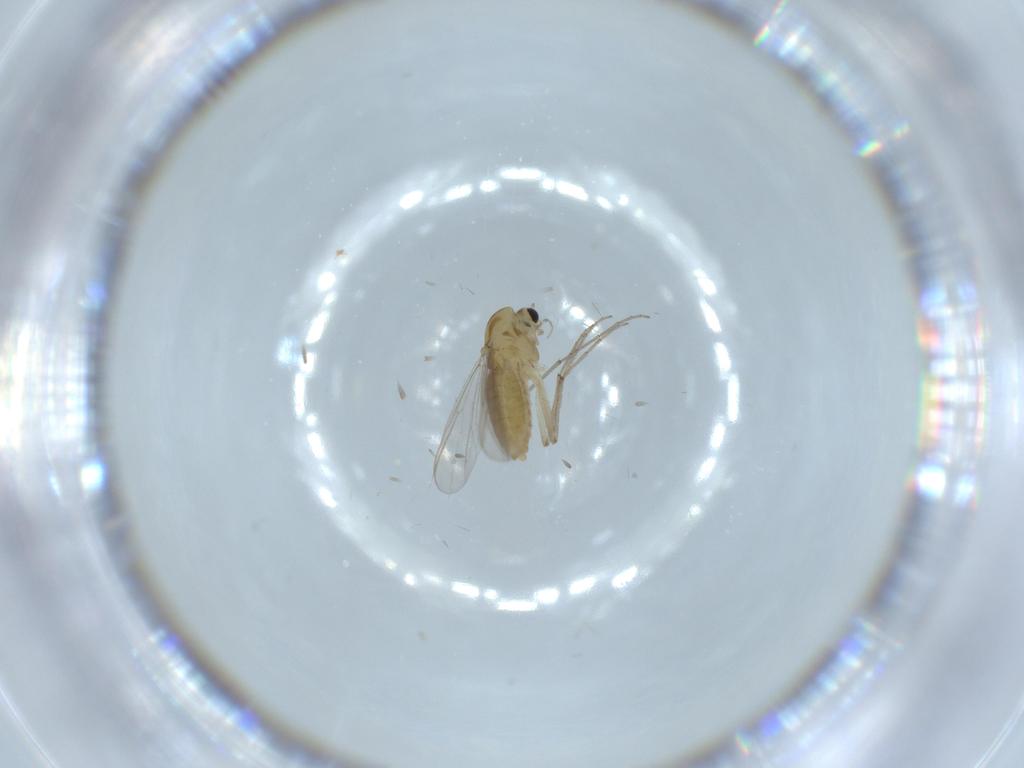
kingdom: Animalia
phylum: Arthropoda
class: Insecta
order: Diptera
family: Chironomidae
